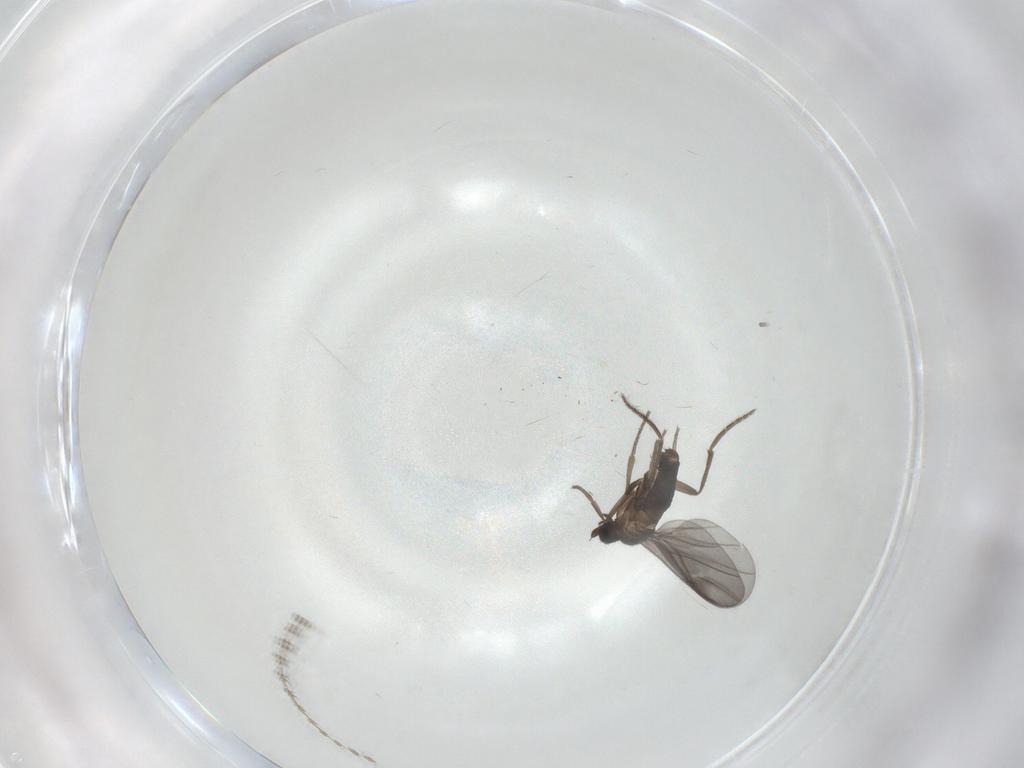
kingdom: Animalia
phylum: Arthropoda
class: Insecta
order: Diptera
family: Phoridae
